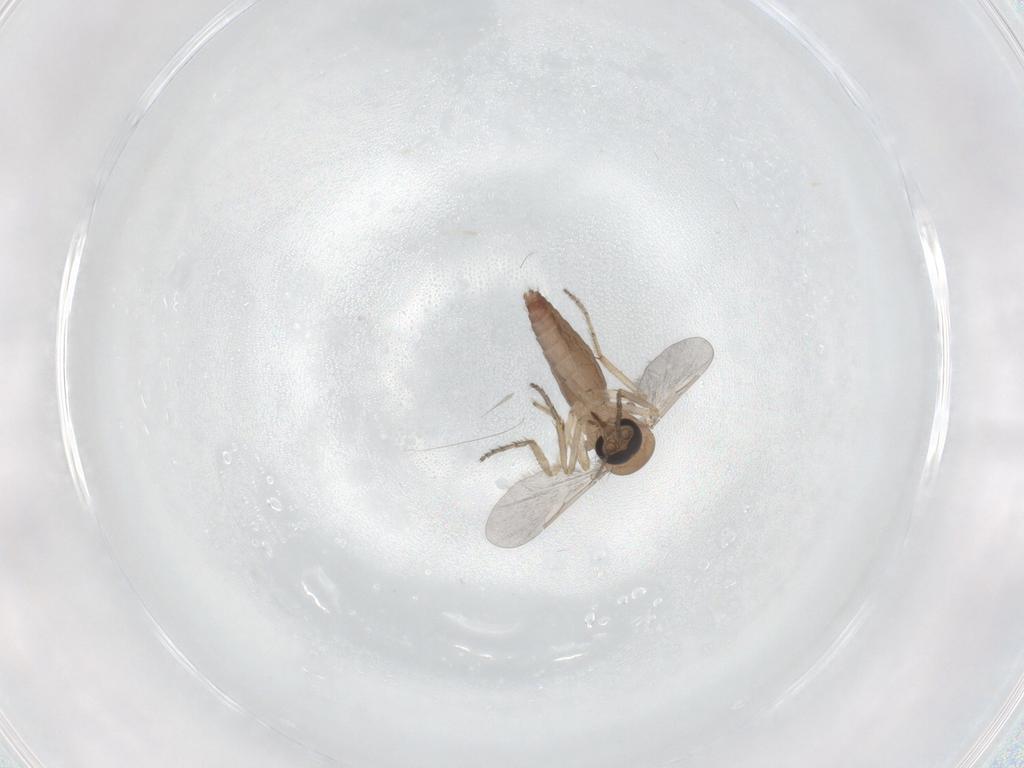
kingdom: Animalia
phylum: Arthropoda
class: Insecta
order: Diptera
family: Ceratopogonidae
